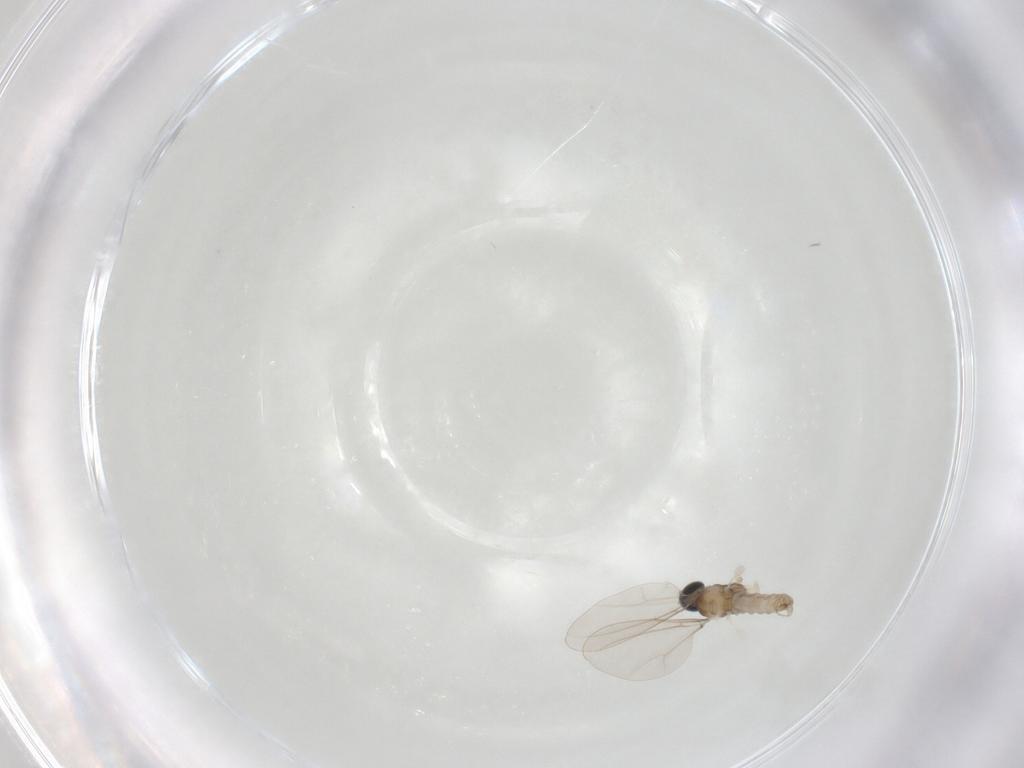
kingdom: Animalia
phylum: Arthropoda
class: Insecta
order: Diptera
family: Cecidomyiidae
